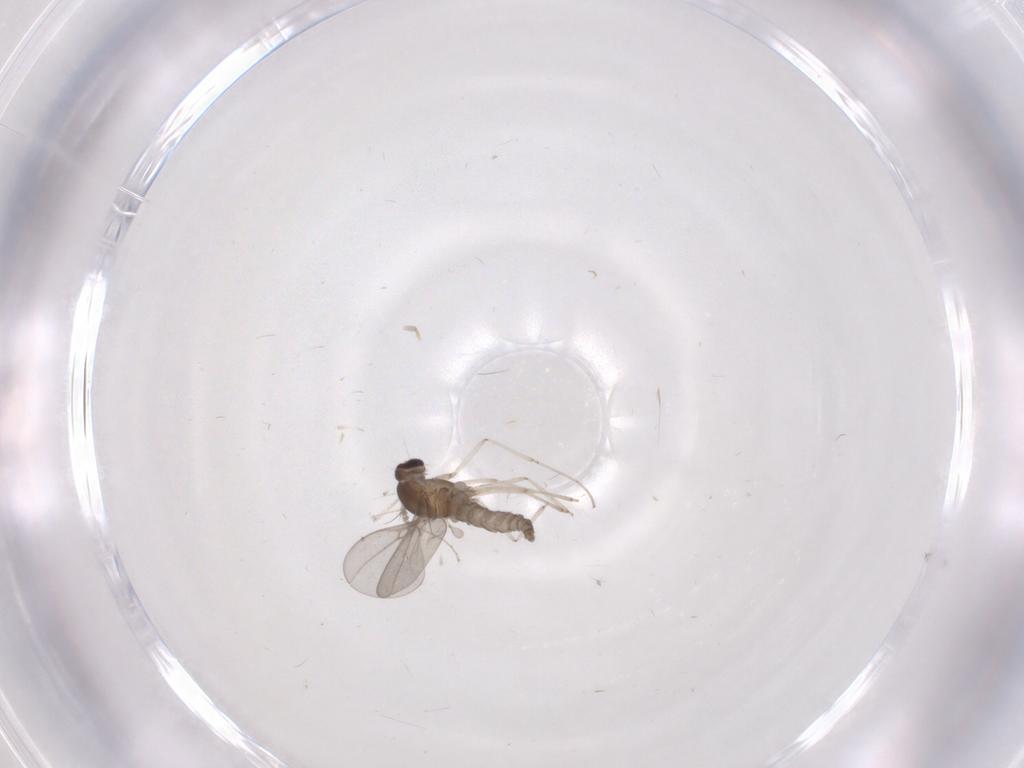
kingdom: Animalia
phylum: Arthropoda
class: Insecta
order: Diptera
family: Cecidomyiidae
